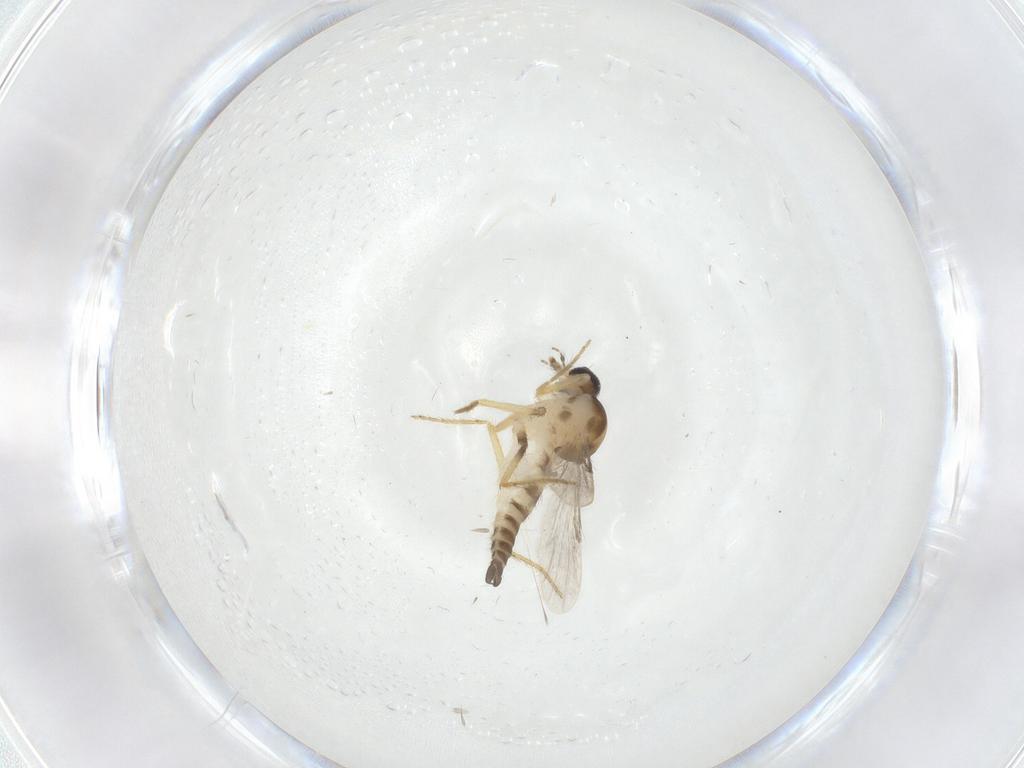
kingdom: Animalia
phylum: Arthropoda
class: Insecta
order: Diptera
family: Ceratopogonidae
